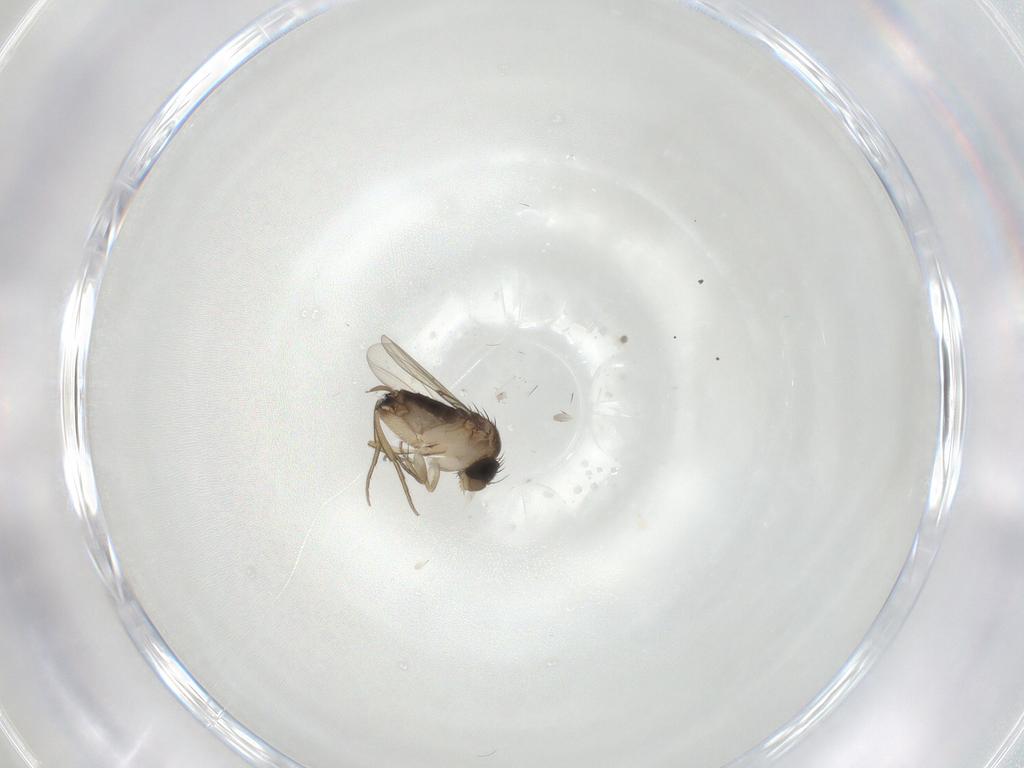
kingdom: Animalia
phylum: Arthropoda
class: Insecta
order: Diptera
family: Phoridae
